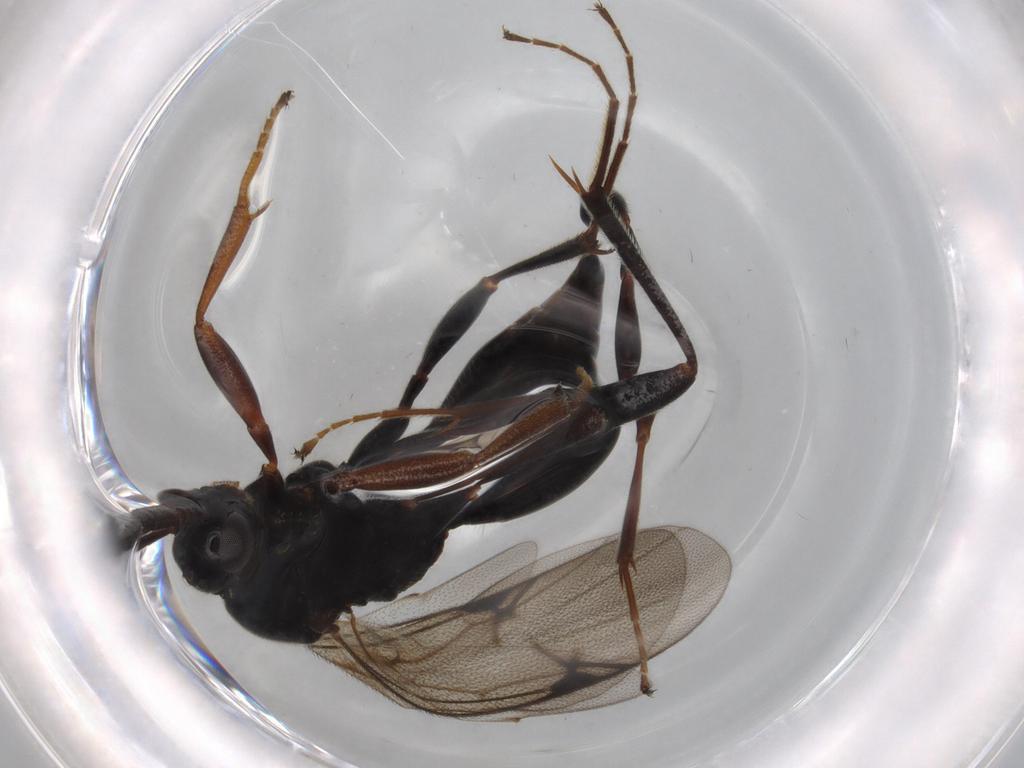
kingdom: Animalia
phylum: Arthropoda
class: Insecta
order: Hymenoptera
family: Proctotrupidae
